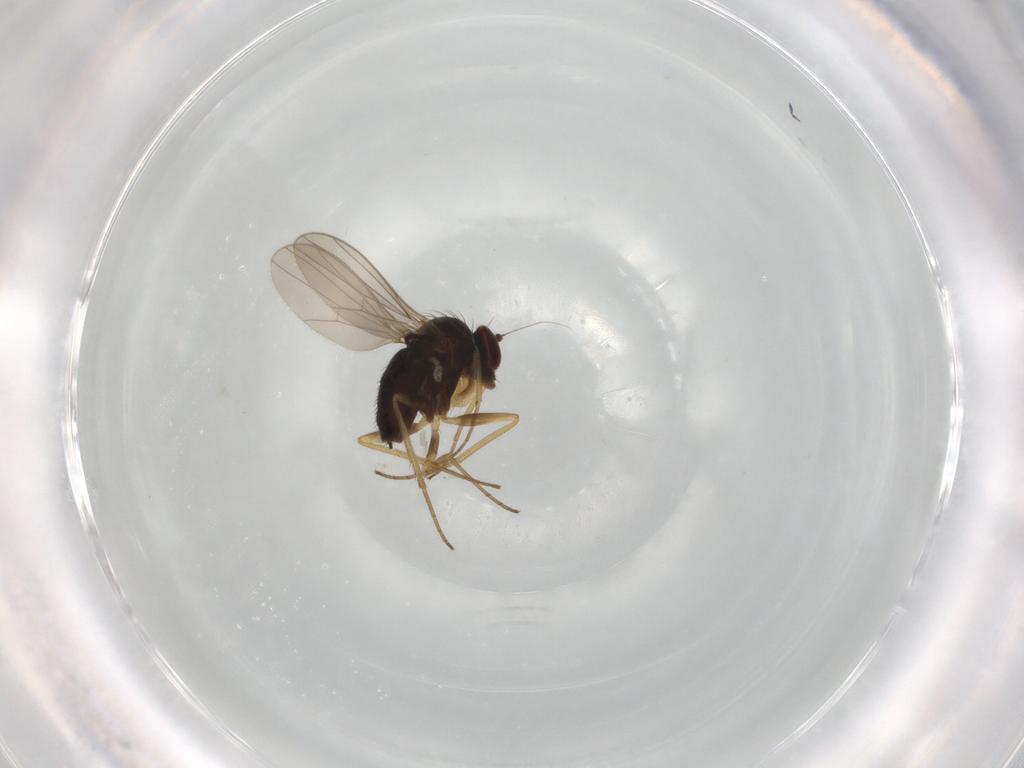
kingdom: Animalia
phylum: Arthropoda
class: Insecta
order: Diptera
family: Dolichopodidae
